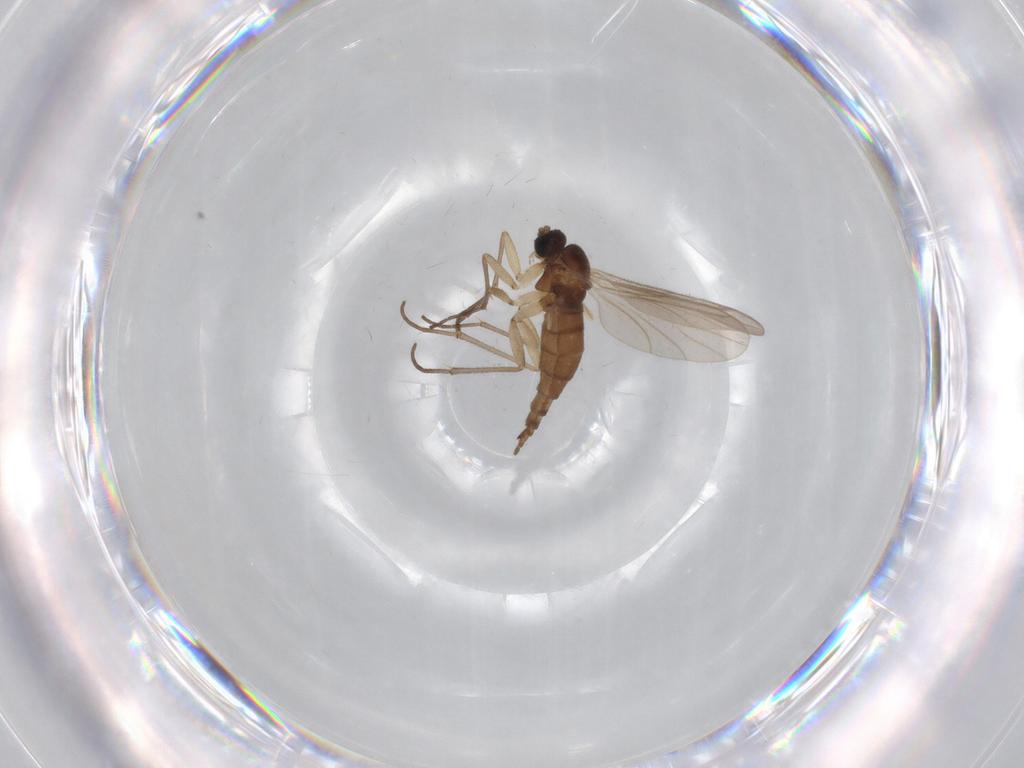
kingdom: Animalia
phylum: Arthropoda
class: Insecta
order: Diptera
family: Sciaridae
